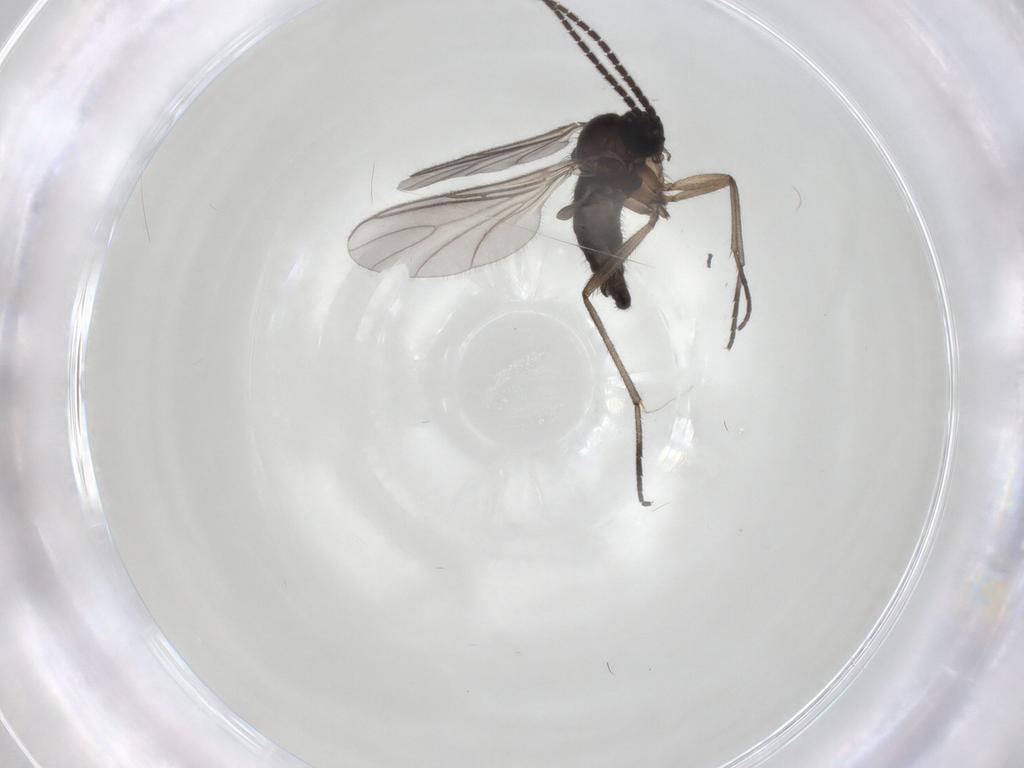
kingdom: Animalia
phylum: Arthropoda
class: Insecta
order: Diptera
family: Sciaridae
